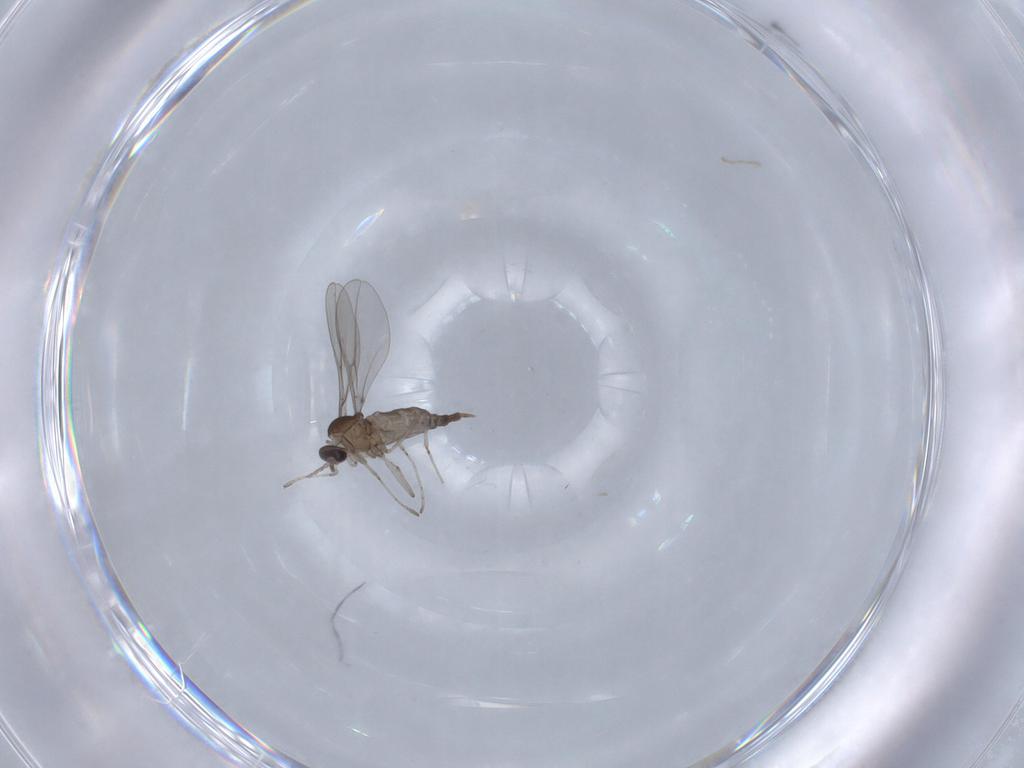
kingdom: Animalia
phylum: Arthropoda
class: Insecta
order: Diptera
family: Cecidomyiidae
